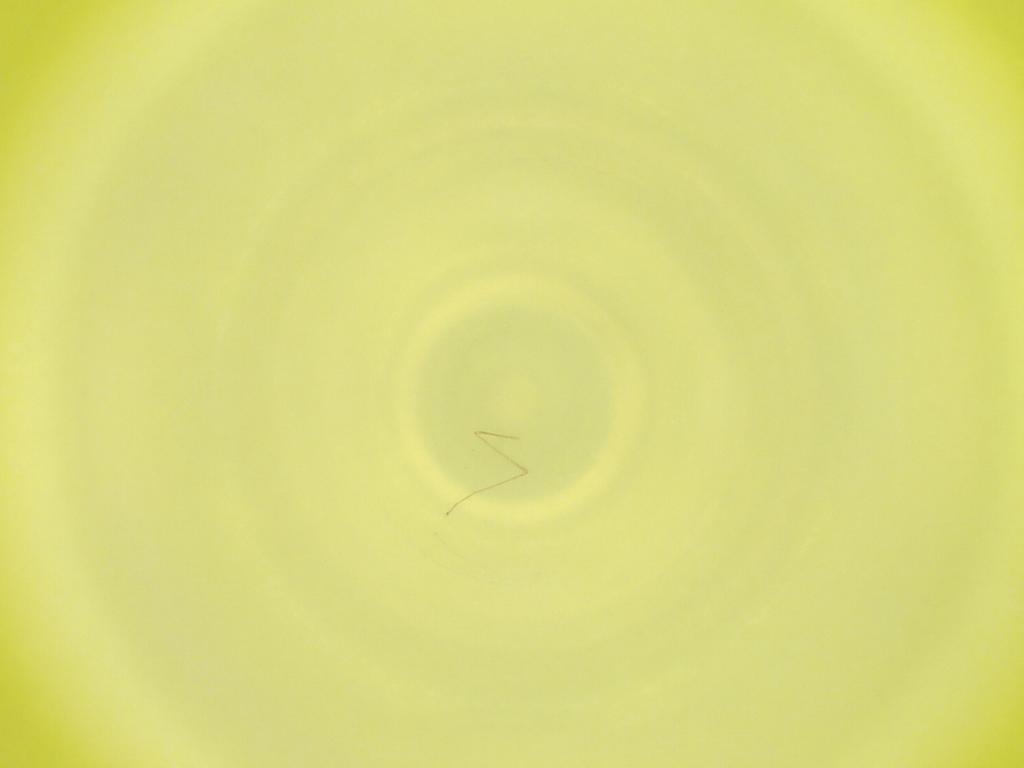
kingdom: Animalia
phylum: Arthropoda
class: Insecta
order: Diptera
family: Cecidomyiidae
